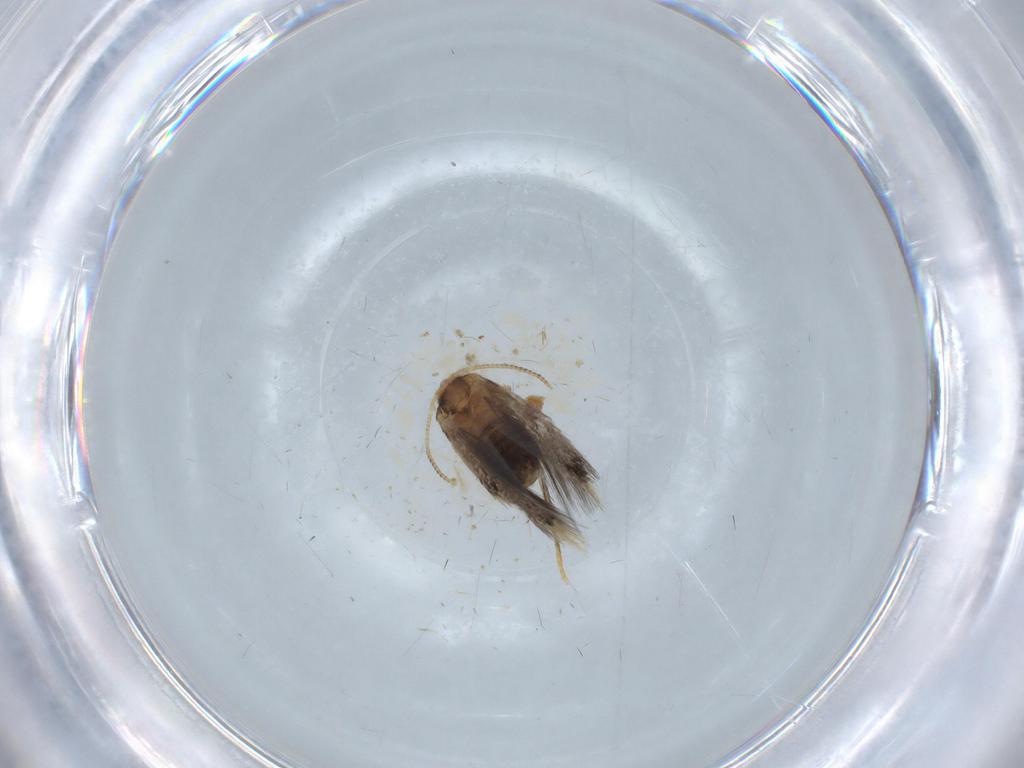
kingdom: Animalia
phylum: Arthropoda
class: Insecta
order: Lepidoptera
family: Psychidae
